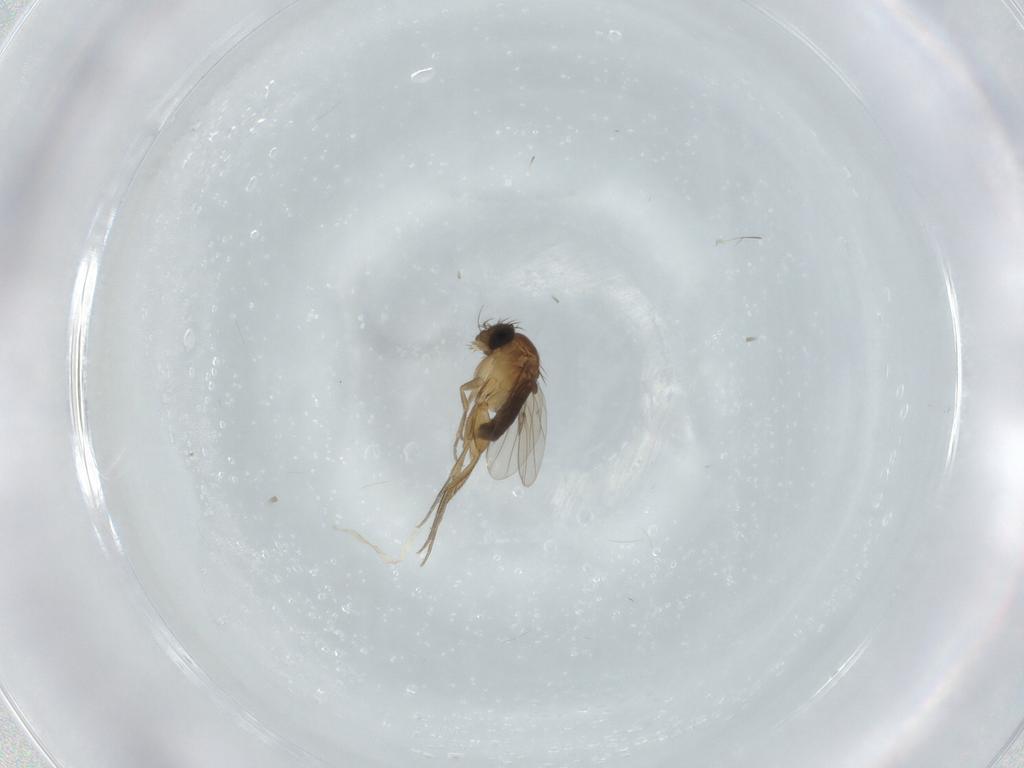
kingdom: Animalia
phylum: Arthropoda
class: Insecta
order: Diptera
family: Phoridae
